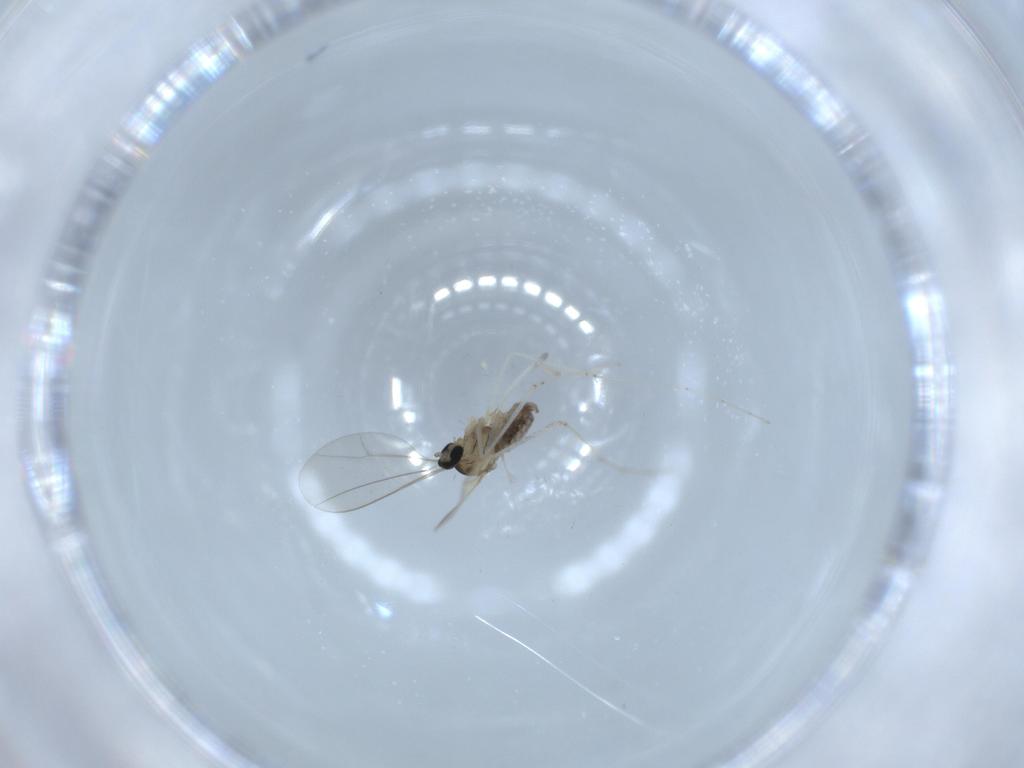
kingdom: Animalia
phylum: Arthropoda
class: Insecta
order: Diptera
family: Cecidomyiidae
